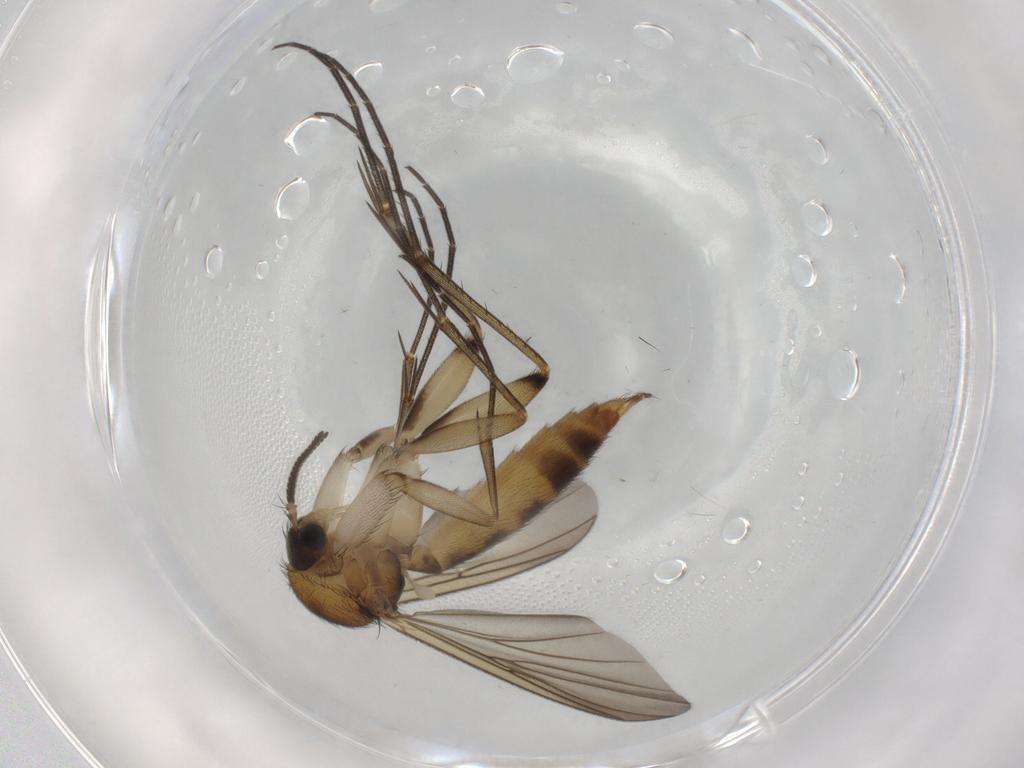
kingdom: Animalia
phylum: Arthropoda
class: Insecta
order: Diptera
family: Mycetophilidae
